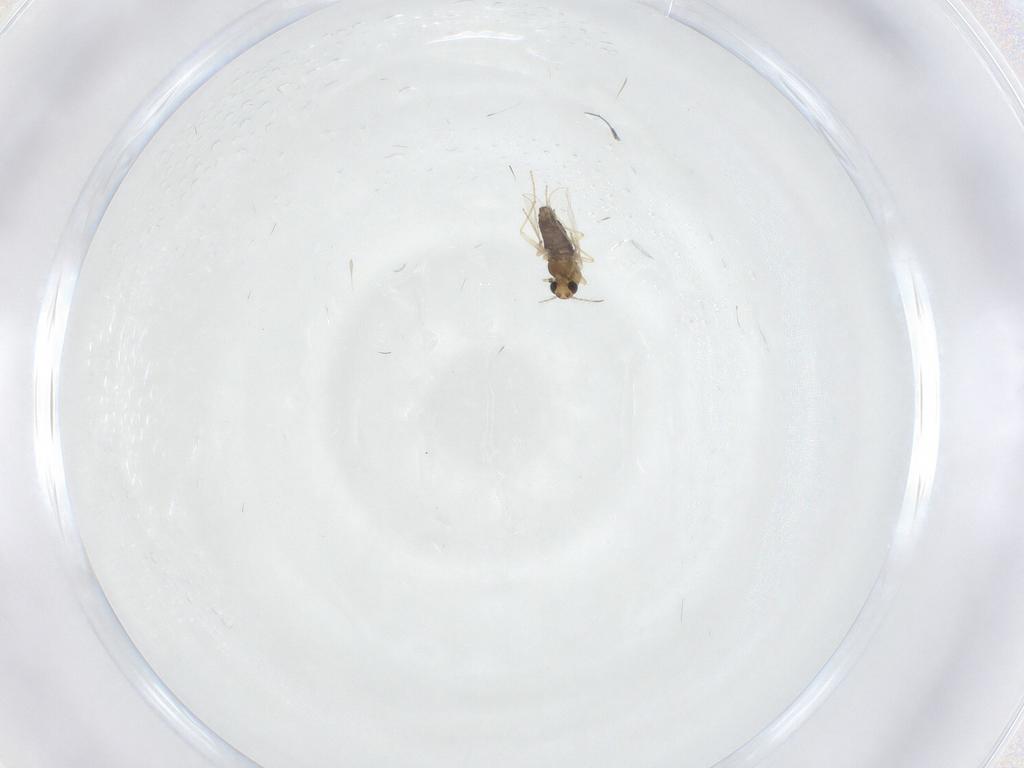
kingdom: Animalia
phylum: Arthropoda
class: Insecta
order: Diptera
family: Chironomidae
